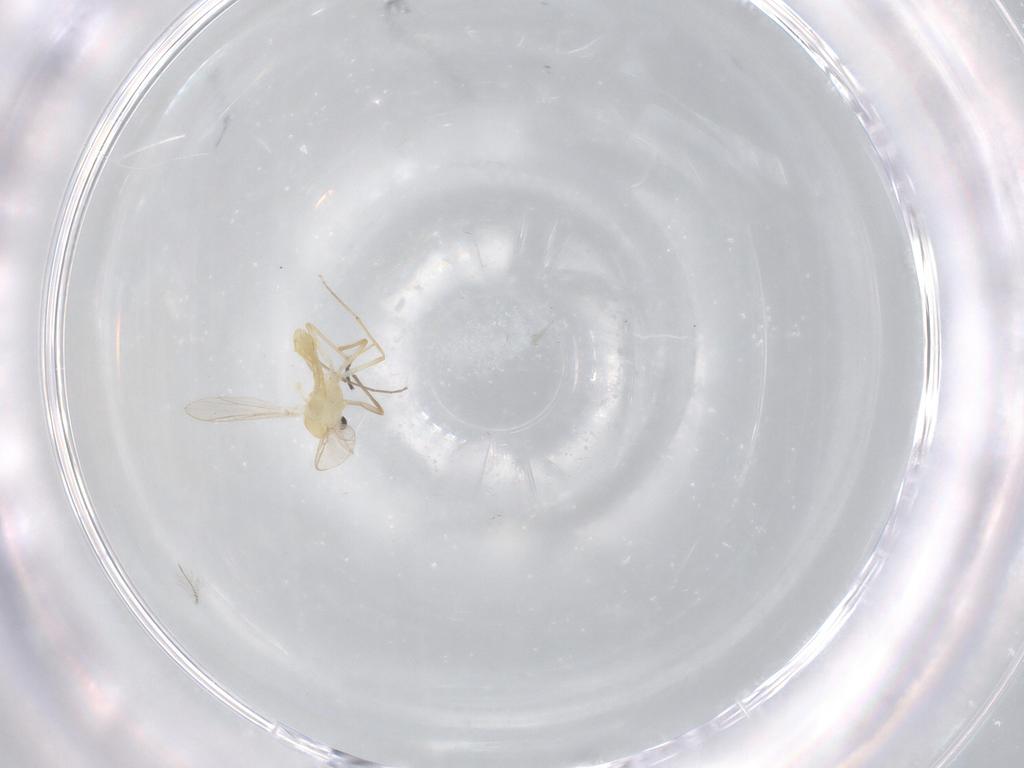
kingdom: Animalia
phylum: Arthropoda
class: Insecta
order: Diptera
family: Chironomidae
